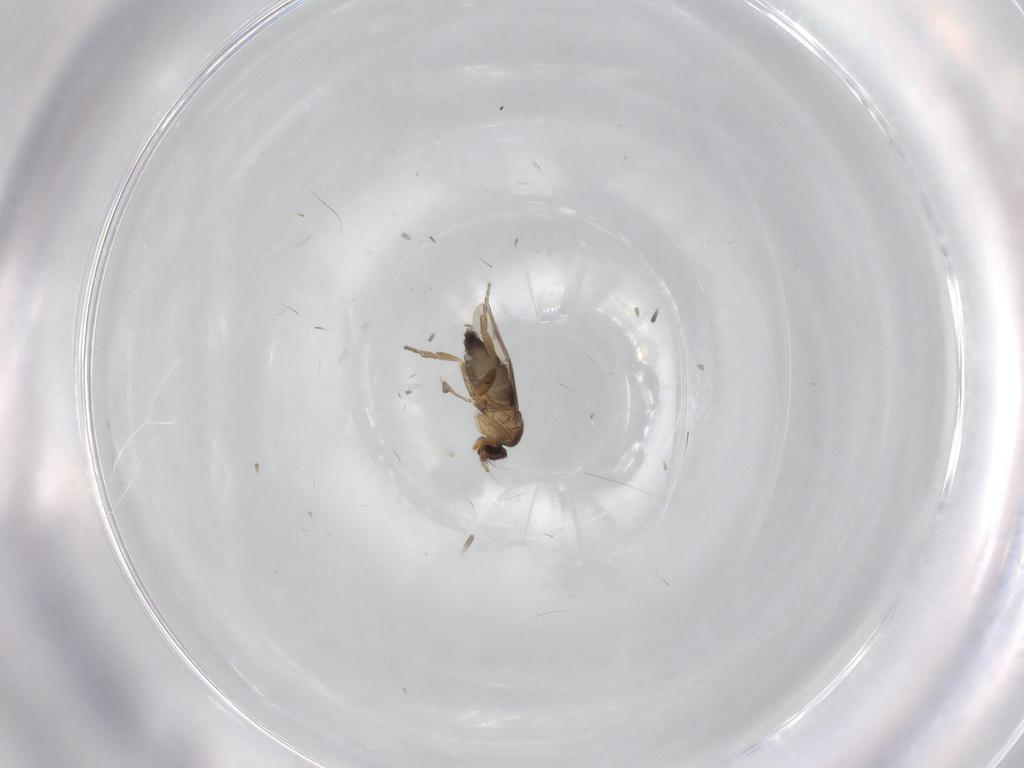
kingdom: Animalia
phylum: Arthropoda
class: Insecta
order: Diptera
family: Phoridae
